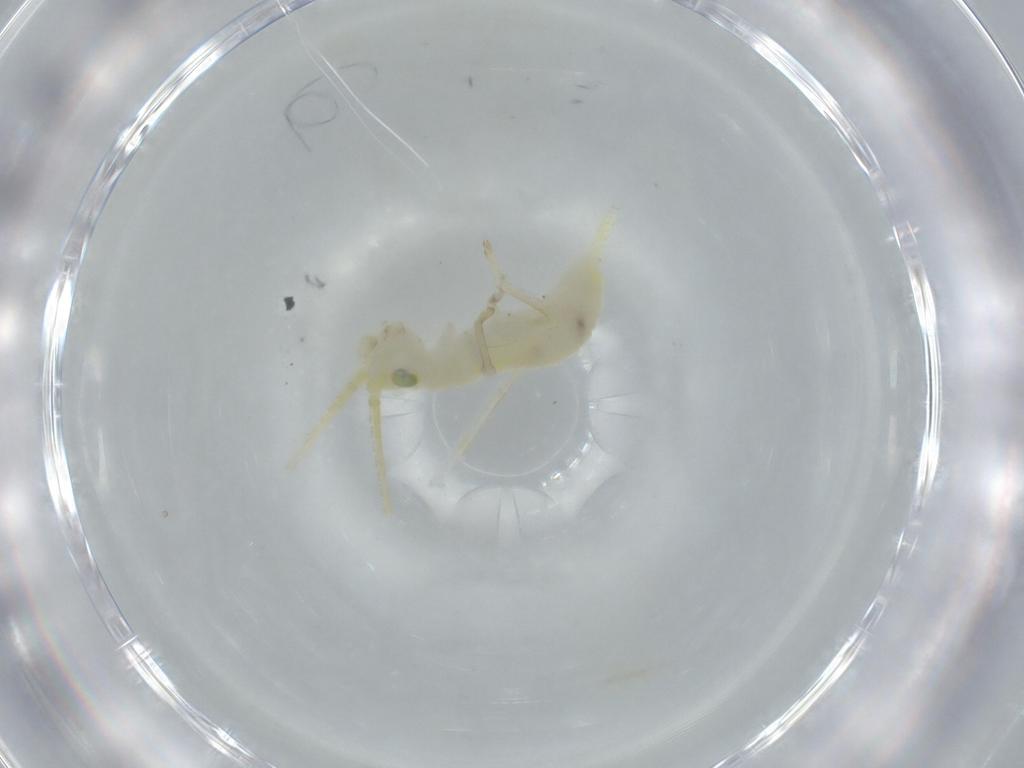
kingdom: Animalia
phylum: Arthropoda
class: Insecta
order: Orthoptera
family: Trigonidiidae
